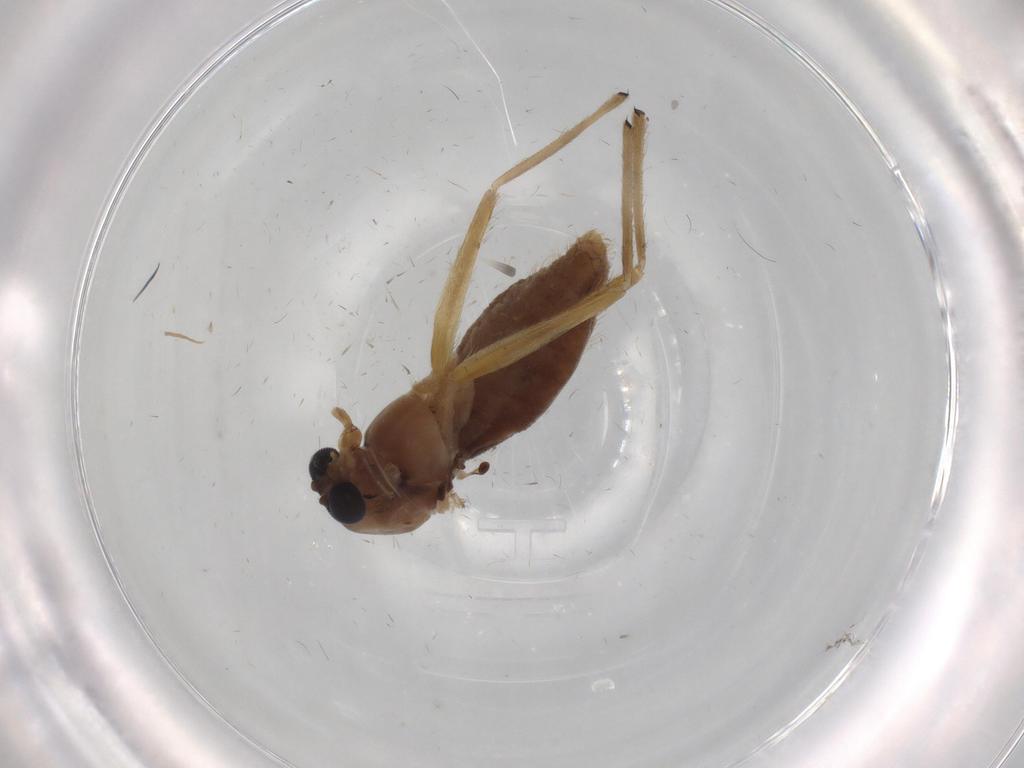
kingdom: Animalia
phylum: Arthropoda
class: Insecta
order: Diptera
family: Chironomidae
